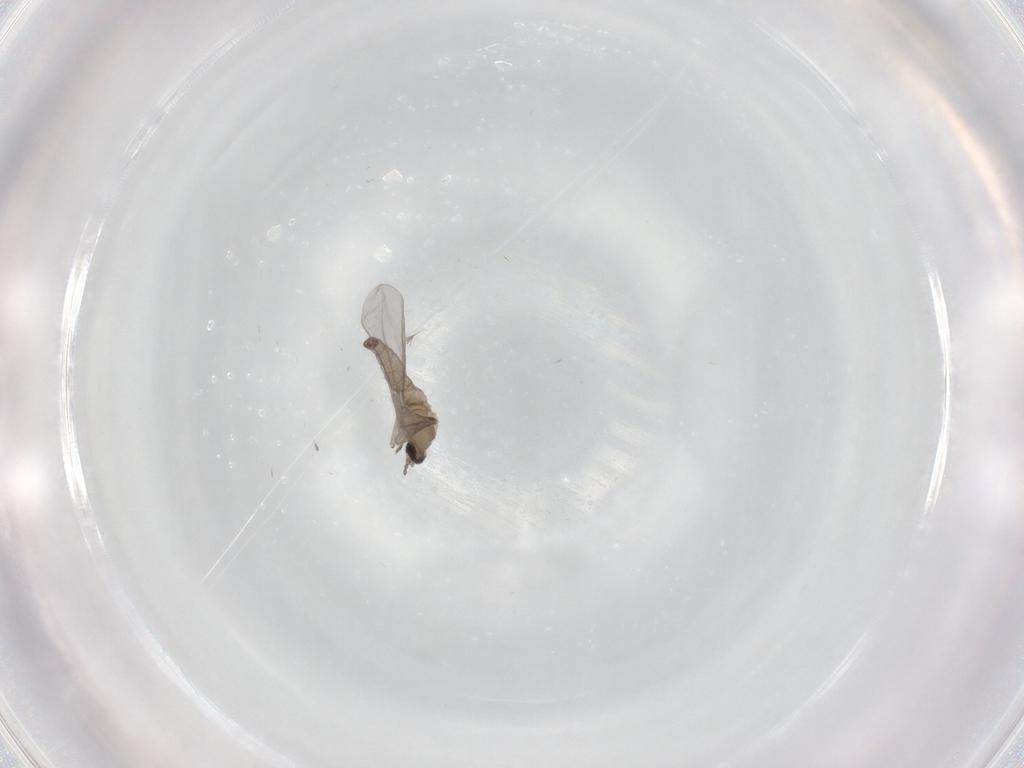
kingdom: Animalia
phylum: Arthropoda
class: Insecta
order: Diptera
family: Cecidomyiidae
